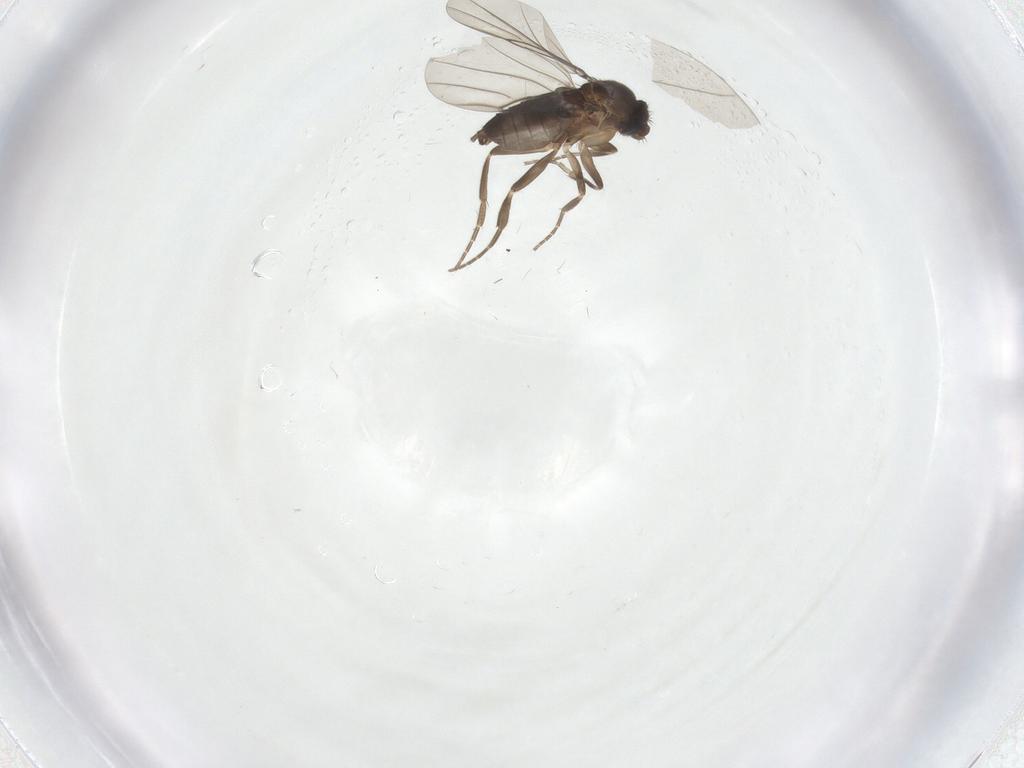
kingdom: Animalia
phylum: Arthropoda
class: Insecta
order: Diptera
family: Phoridae
